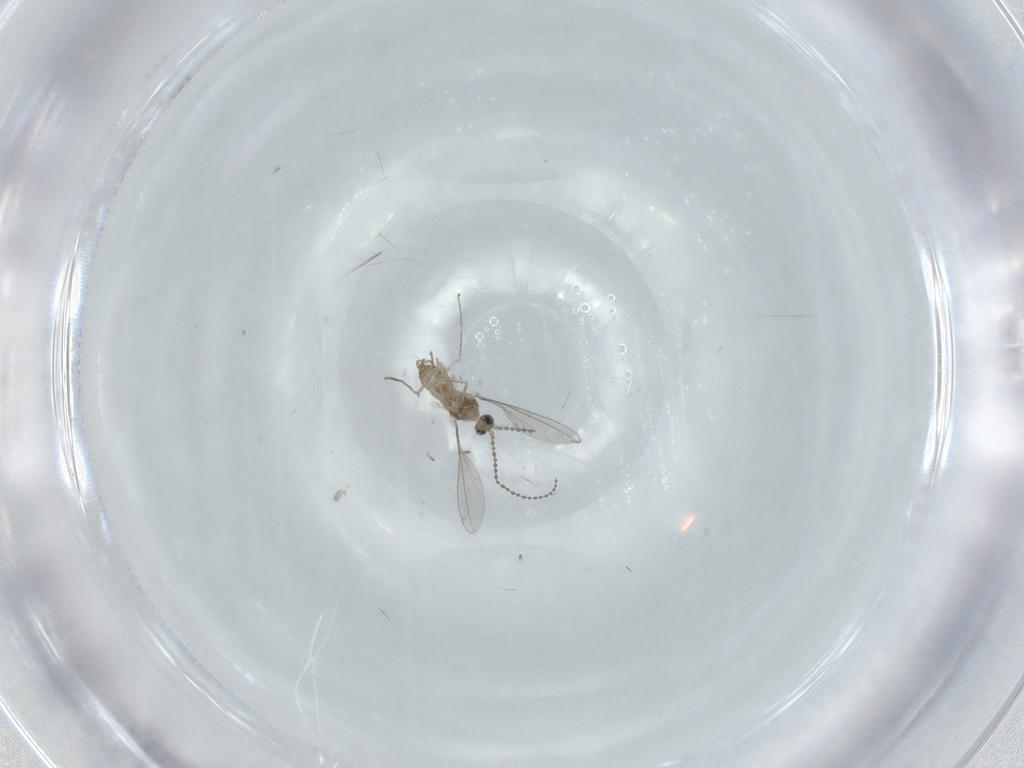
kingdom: Animalia
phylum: Arthropoda
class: Insecta
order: Diptera
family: Cecidomyiidae
